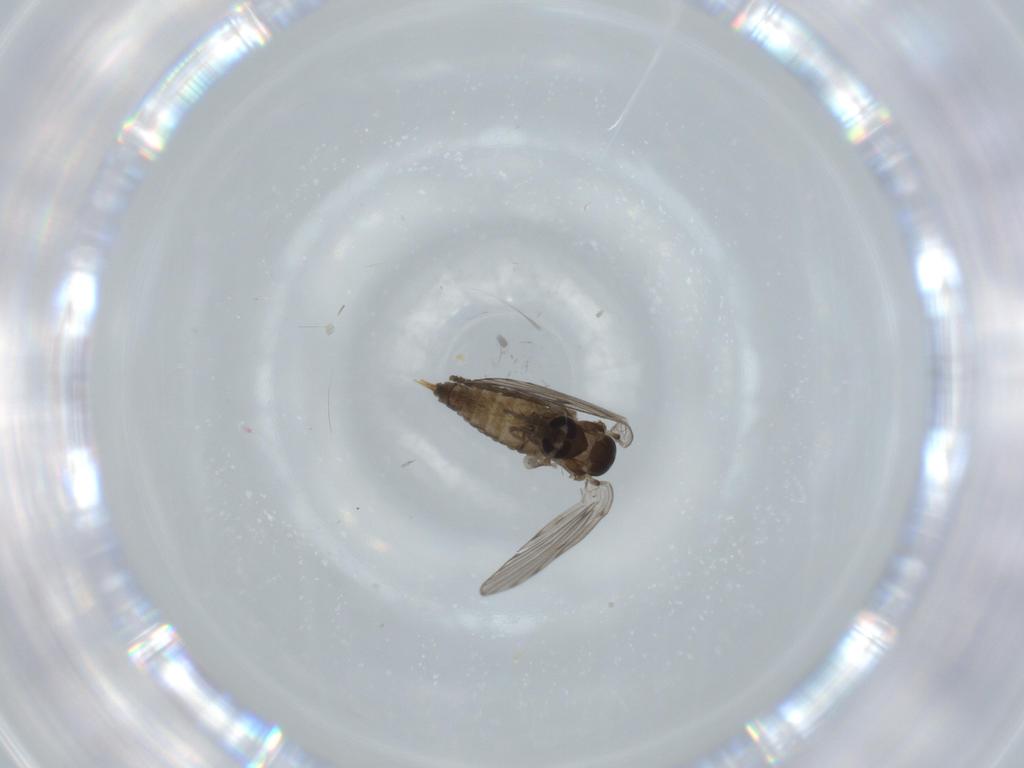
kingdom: Animalia
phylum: Arthropoda
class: Insecta
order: Diptera
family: Psychodidae
